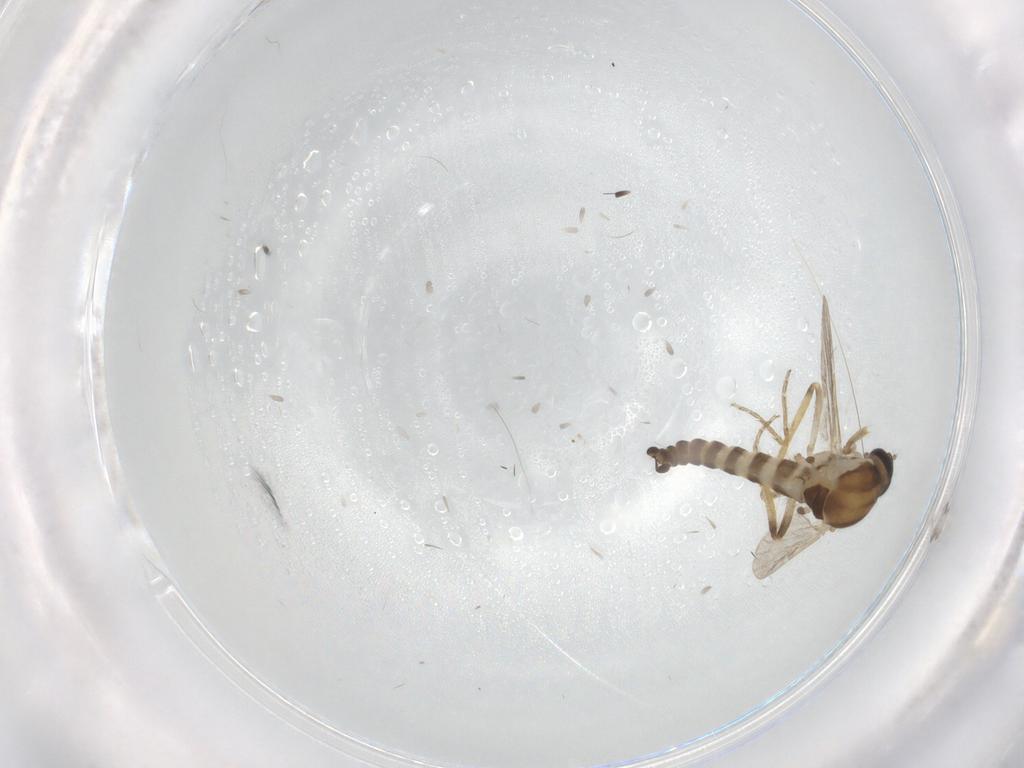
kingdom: Animalia
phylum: Arthropoda
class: Insecta
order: Diptera
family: Ceratopogonidae
